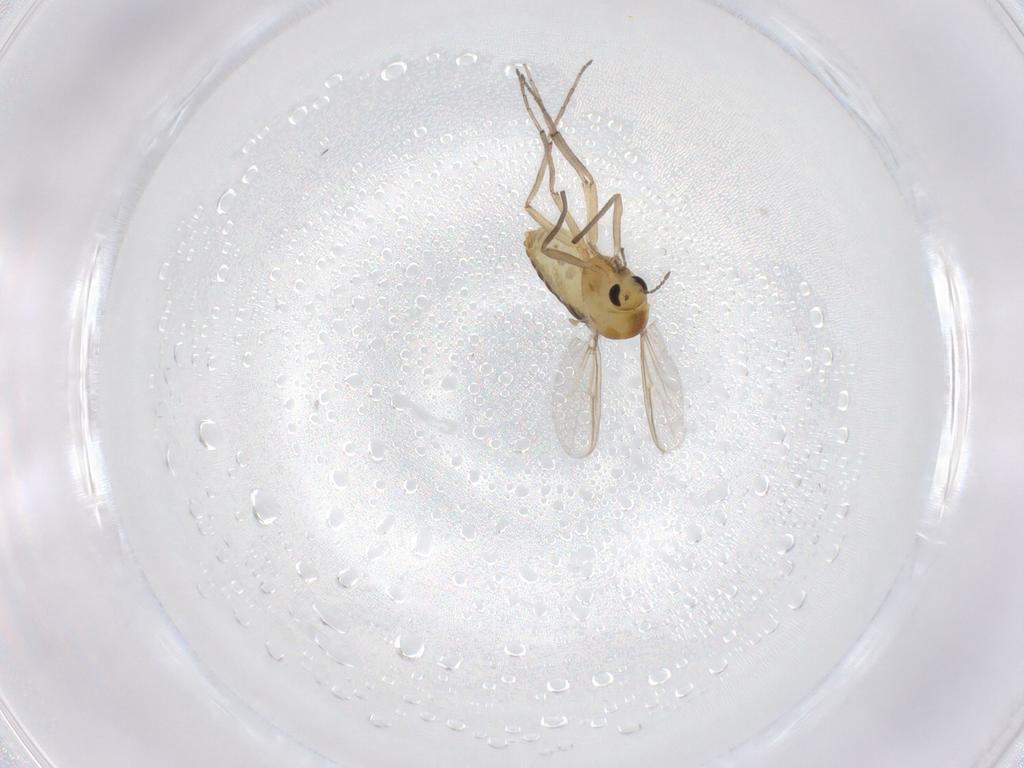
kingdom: Animalia
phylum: Arthropoda
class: Insecta
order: Diptera
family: Chironomidae
